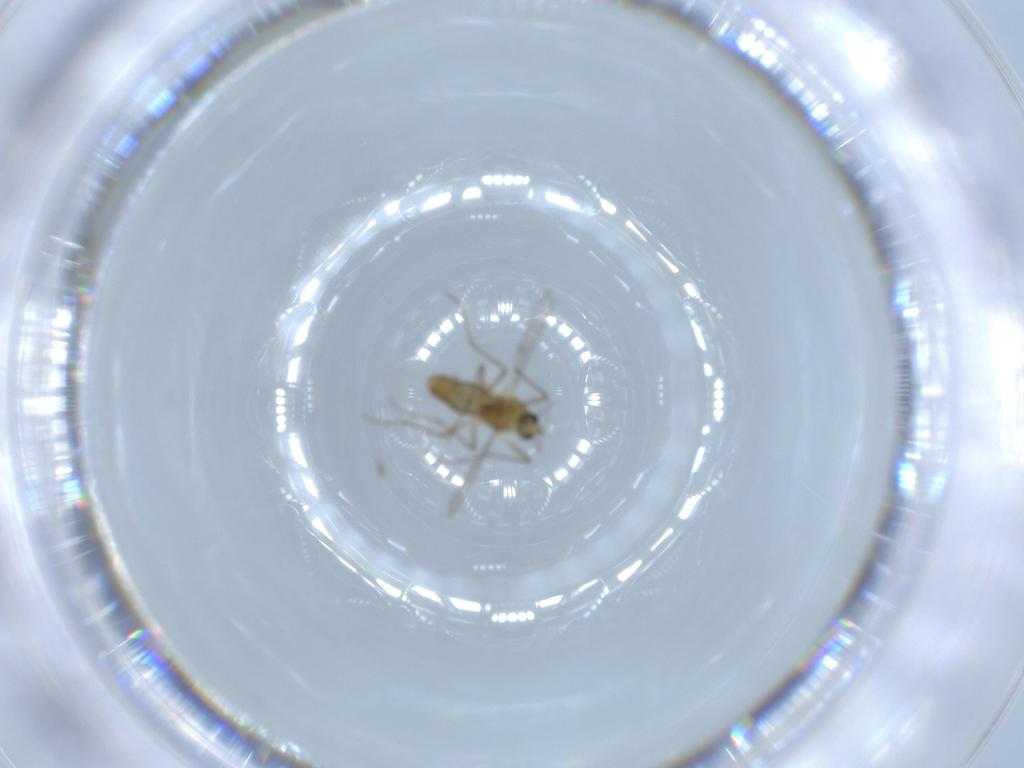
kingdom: Animalia
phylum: Arthropoda
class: Insecta
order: Diptera
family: Chironomidae
